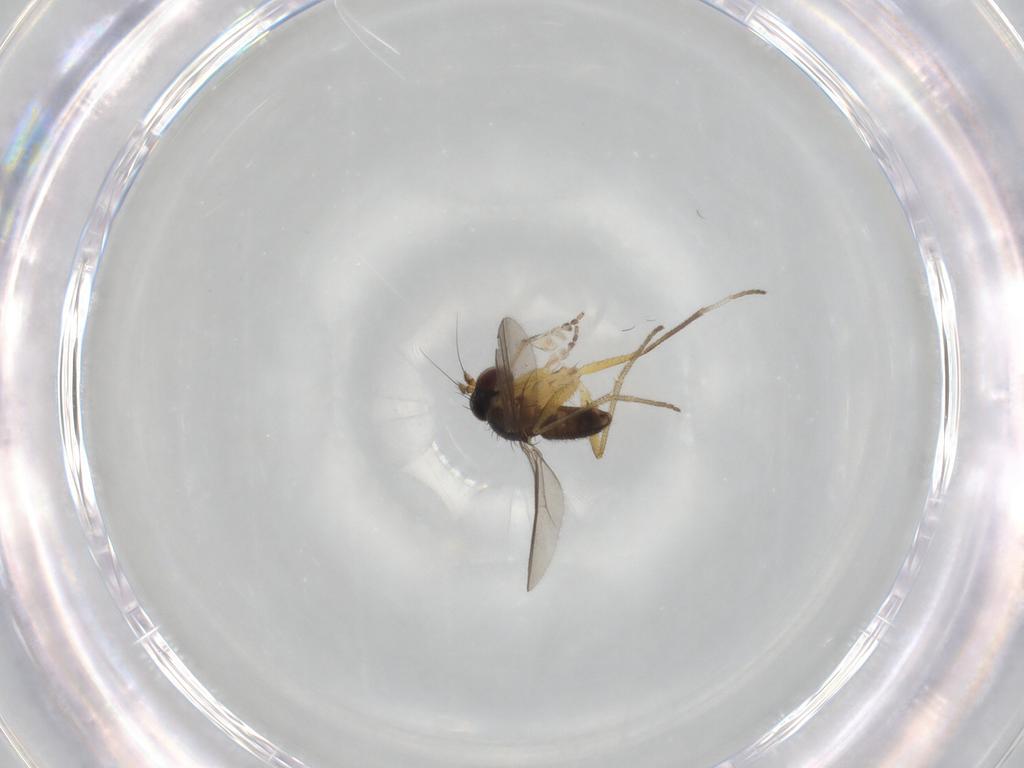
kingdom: Animalia
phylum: Arthropoda
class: Insecta
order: Diptera
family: Dolichopodidae
